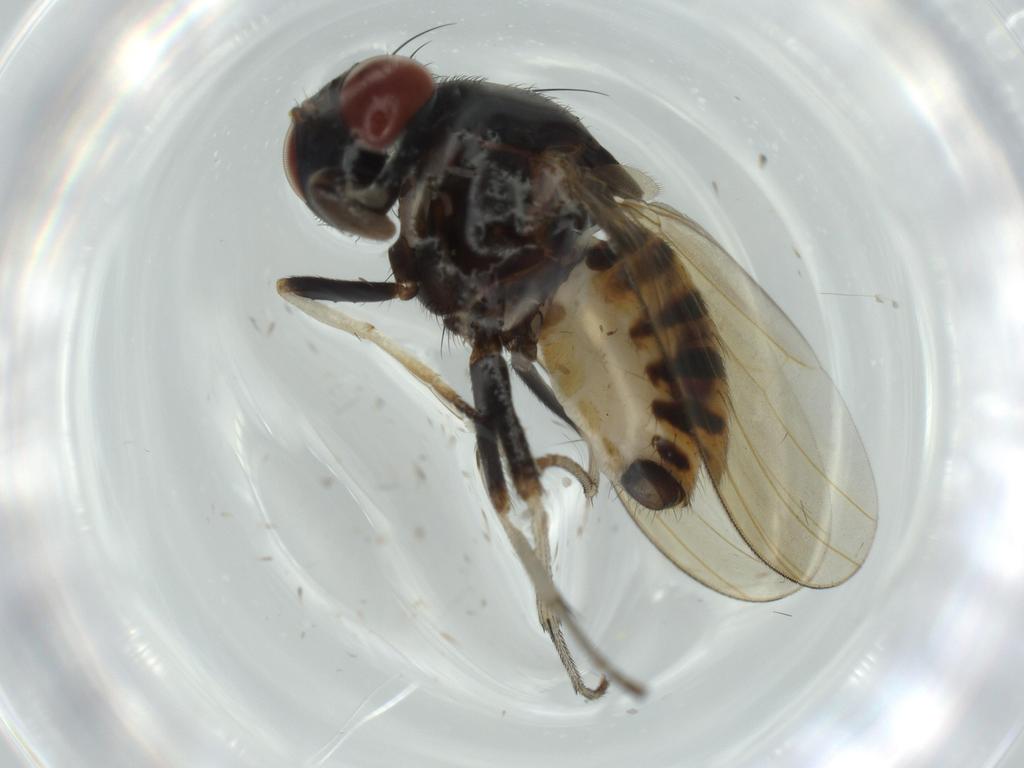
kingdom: Animalia
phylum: Arthropoda
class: Insecta
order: Diptera
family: Sciaridae
